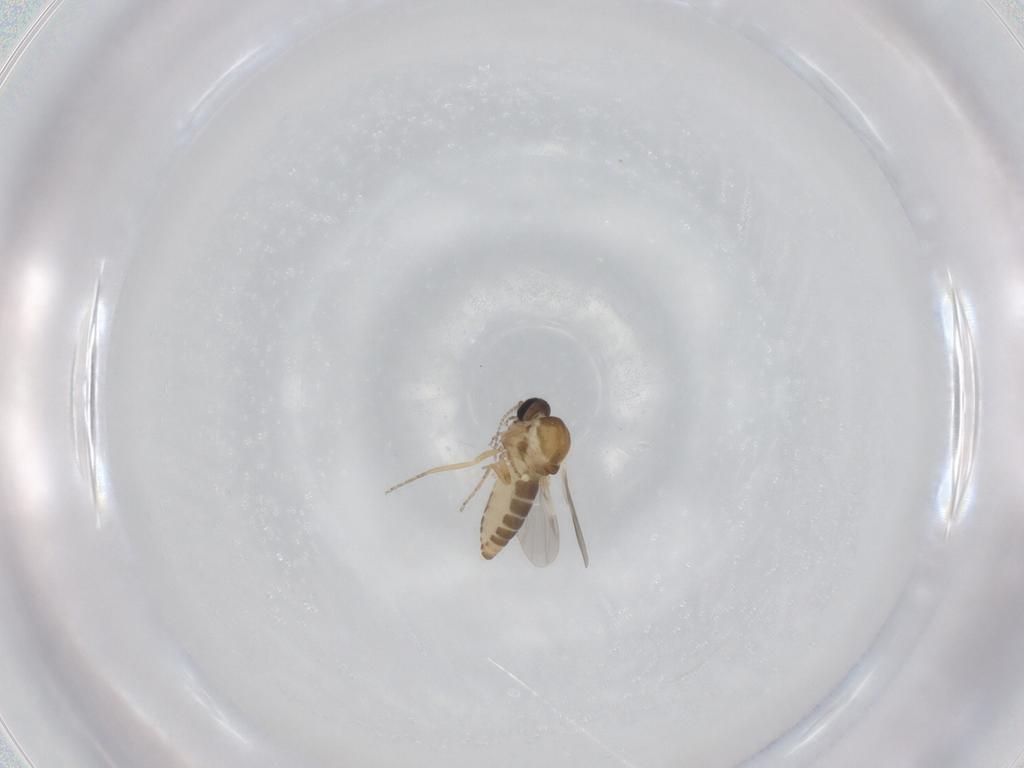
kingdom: Animalia
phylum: Arthropoda
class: Insecta
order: Diptera
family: Ceratopogonidae
